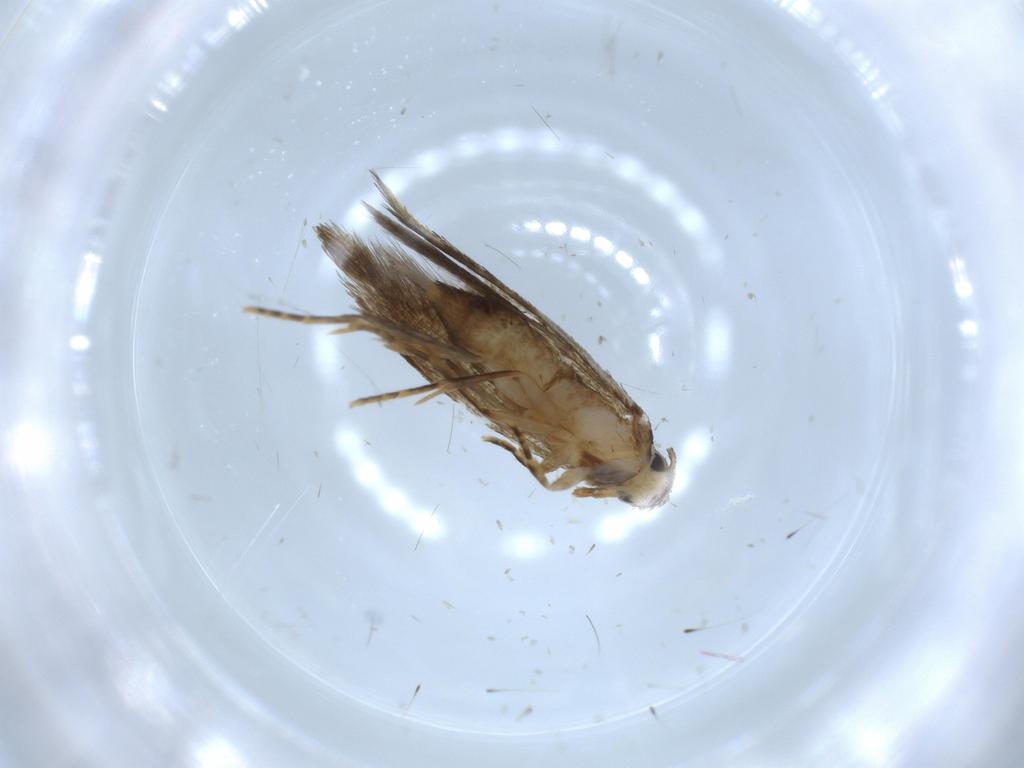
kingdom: Animalia
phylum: Arthropoda
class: Insecta
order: Lepidoptera
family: Tineidae
